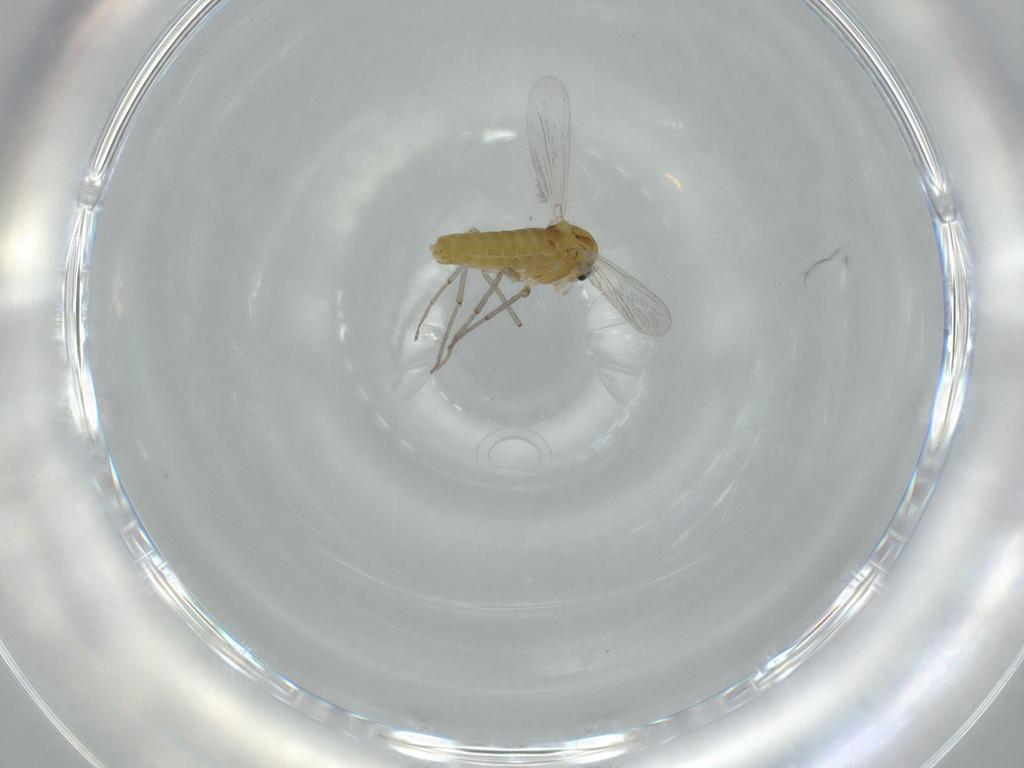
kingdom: Animalia
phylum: Arthropoda
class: Insecta
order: Diptera
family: Chironomidae
